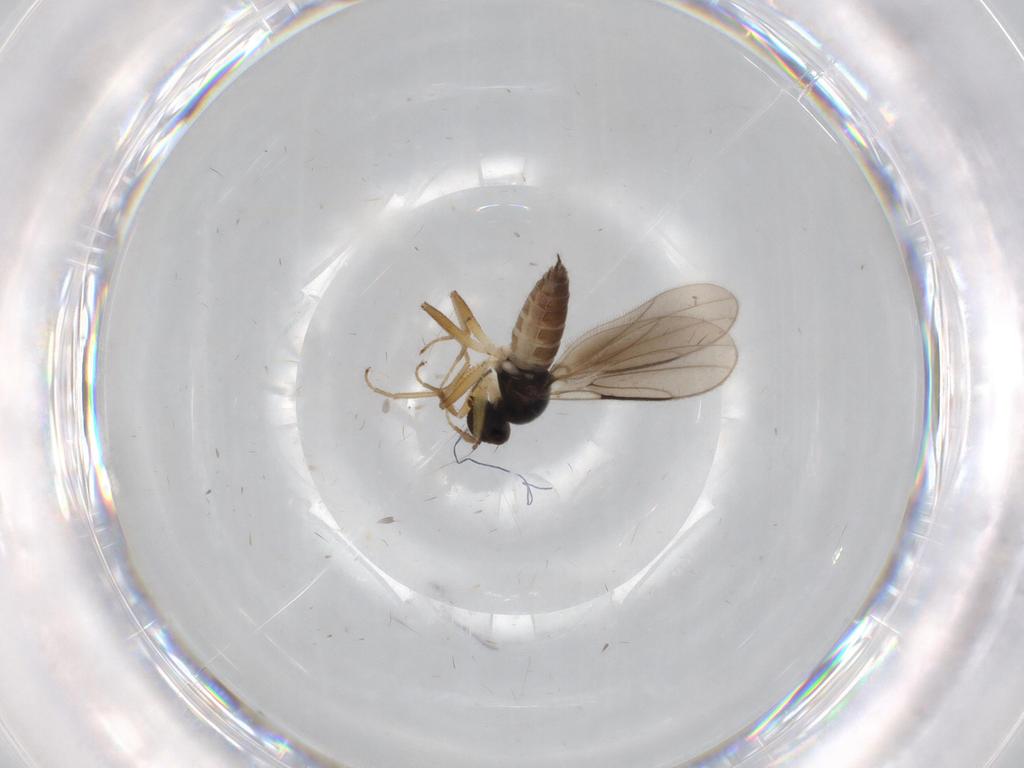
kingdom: Animalia
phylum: Arthropoda
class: Insecta
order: Diptera
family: Hybotidae
